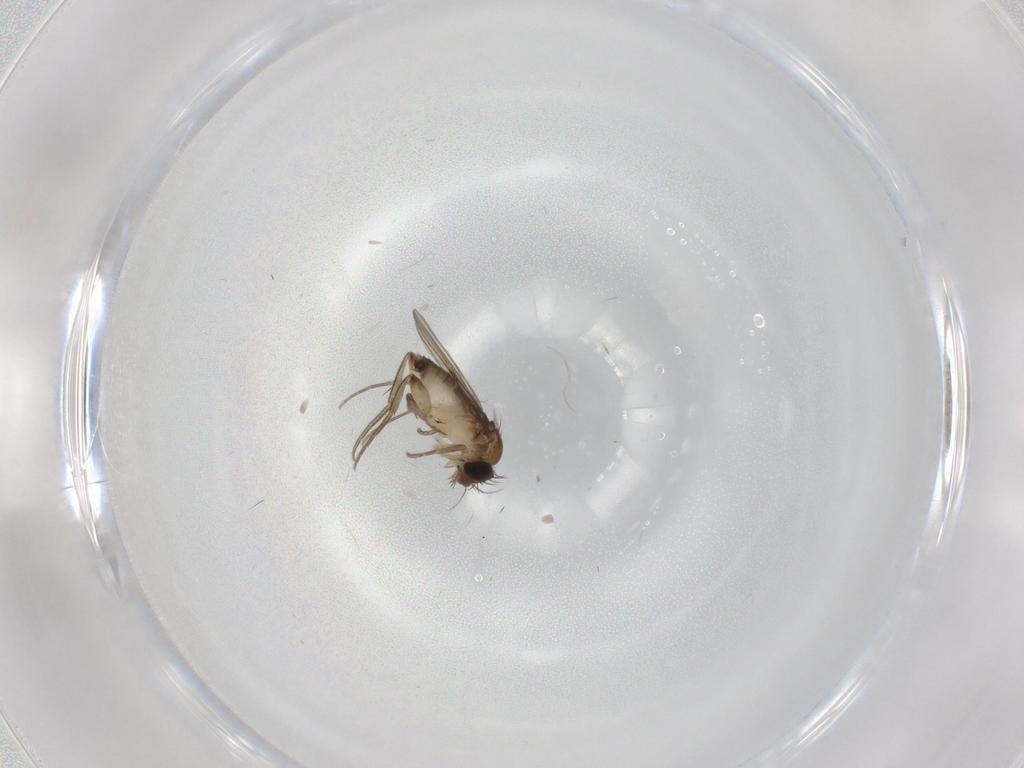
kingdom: Animalia
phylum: Arthropoda
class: Insecta
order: Diptera
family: Phoridae
